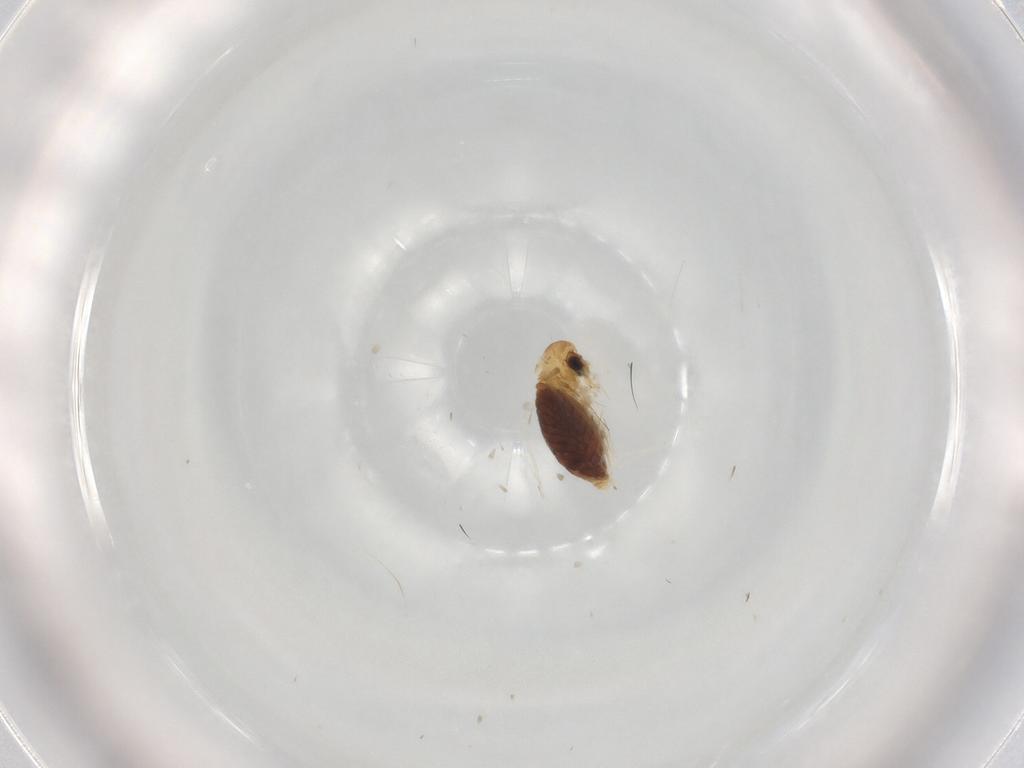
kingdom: Animalia
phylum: Arthropoda
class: Insecta
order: Diptera
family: Psychodidae
